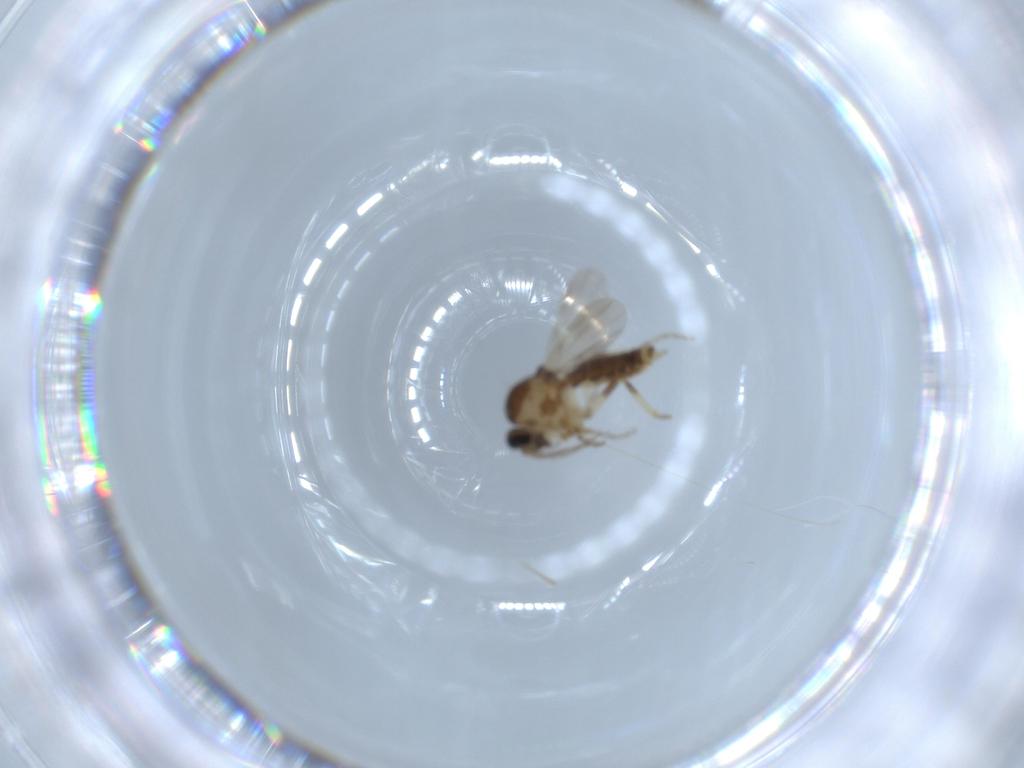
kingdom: Animalia
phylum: Arthropoda
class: Insecta
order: Diptera
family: Ceratopogonidae
